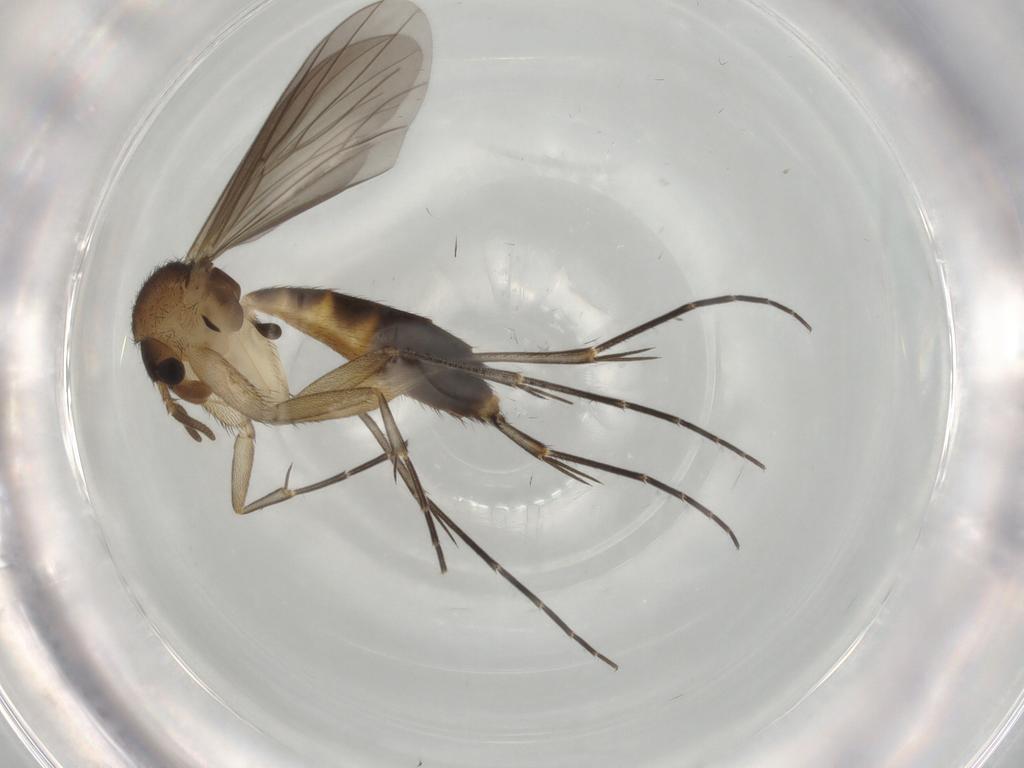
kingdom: Animalia
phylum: Arthropoda
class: Insecta
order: Diptera
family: Mycetophilidae
